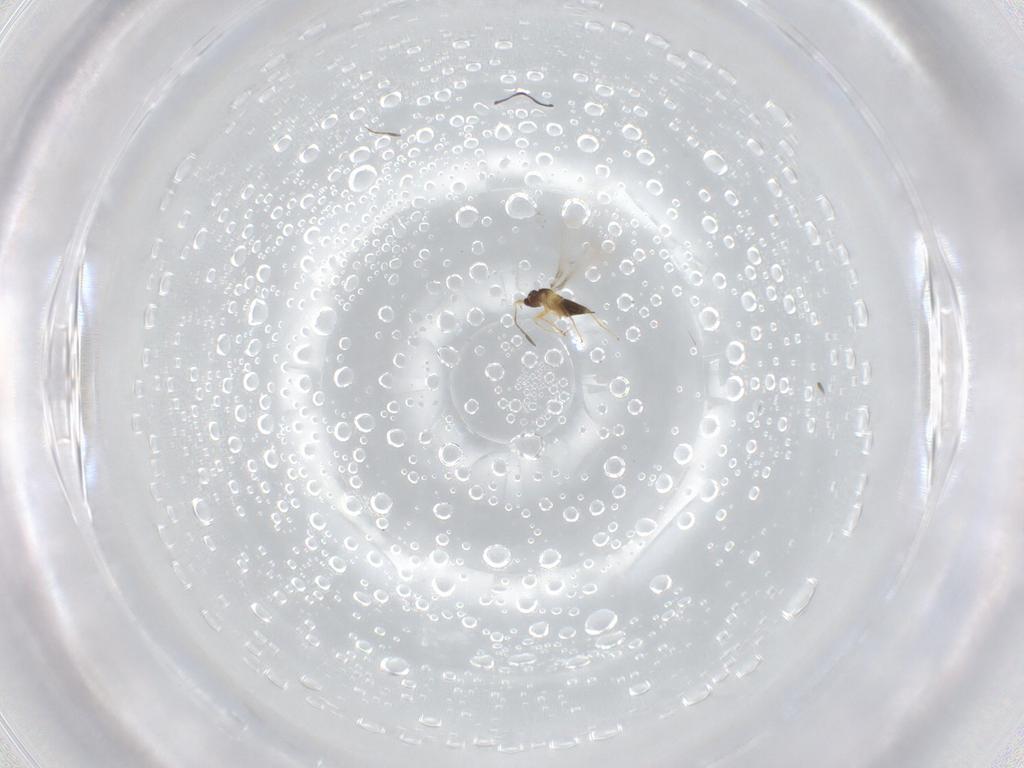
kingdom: Animalia
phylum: Arthropoda
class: Insecta
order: Hymenoptera
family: Mymaridae
